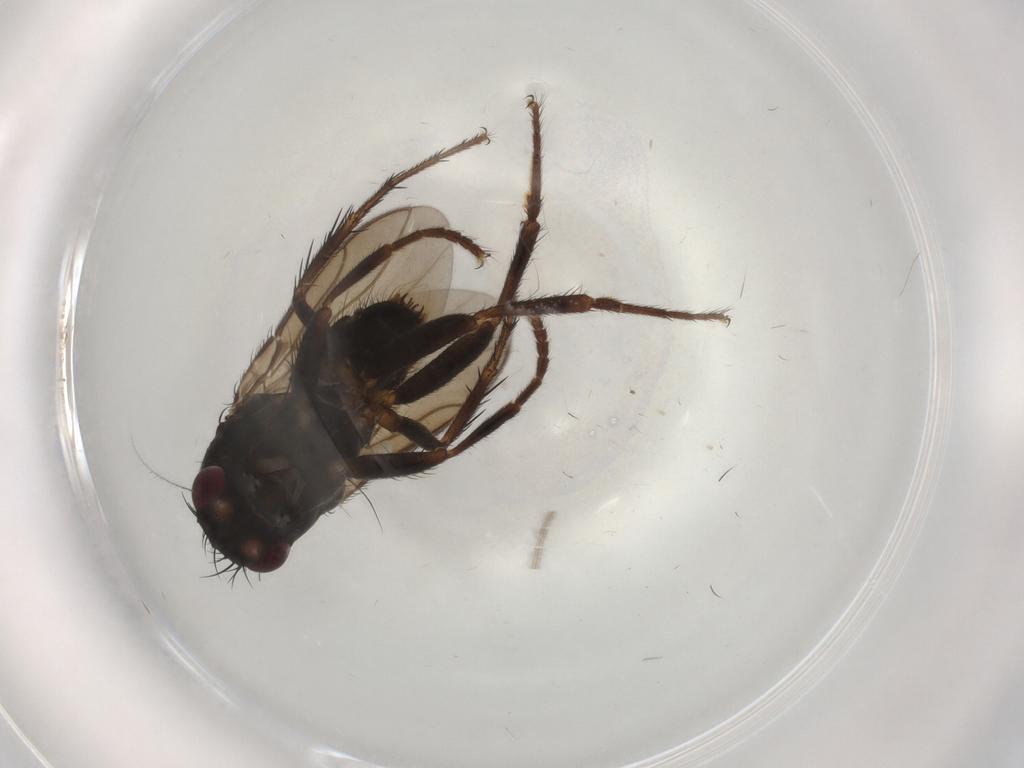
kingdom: Animalia
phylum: Arthropoda
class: Insecta
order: Diptera
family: Sphaeroceridae
